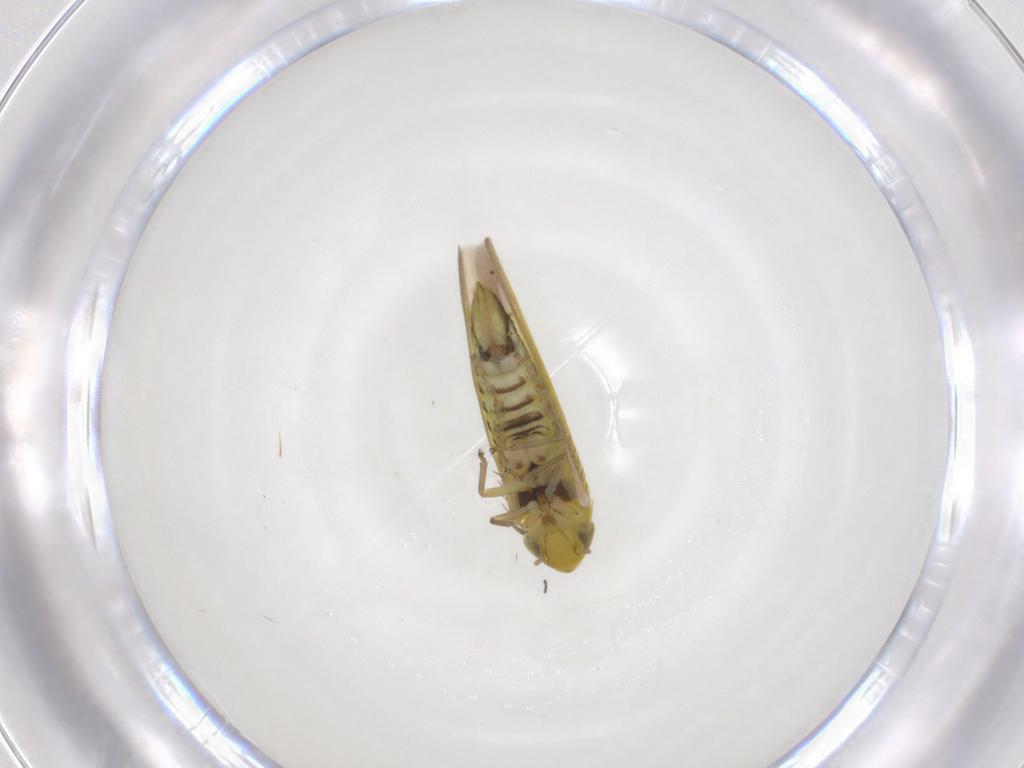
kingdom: Animalia
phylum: Arthropoda
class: Insecta
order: Hemiptera
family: Cicadellidae
